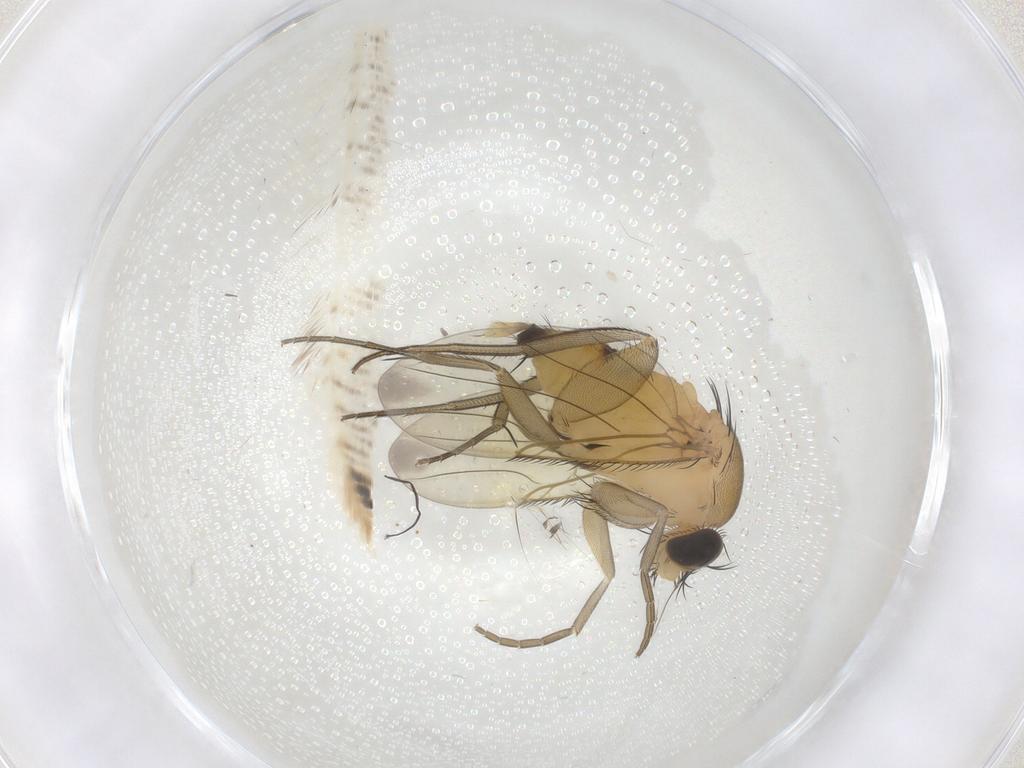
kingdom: Animalia
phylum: Arthropoda
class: Insecta
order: Diptera
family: Phoridae
